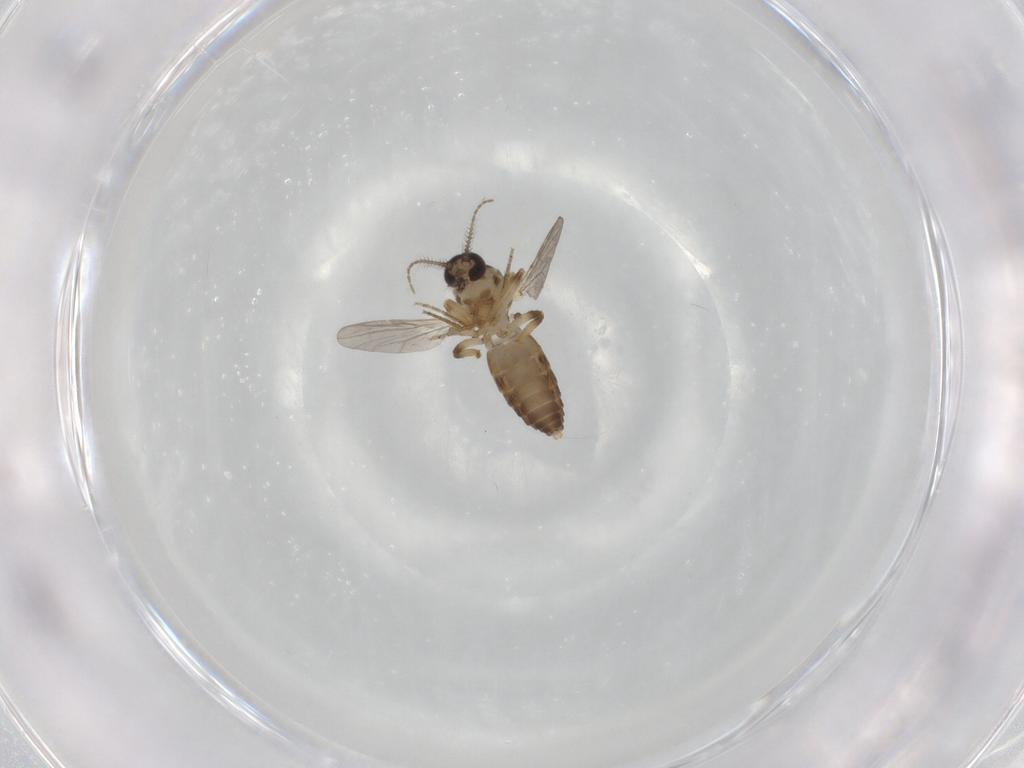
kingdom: Animalia
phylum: Arthropoda
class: Insecta
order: Diptera
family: Ceratopogonidae
